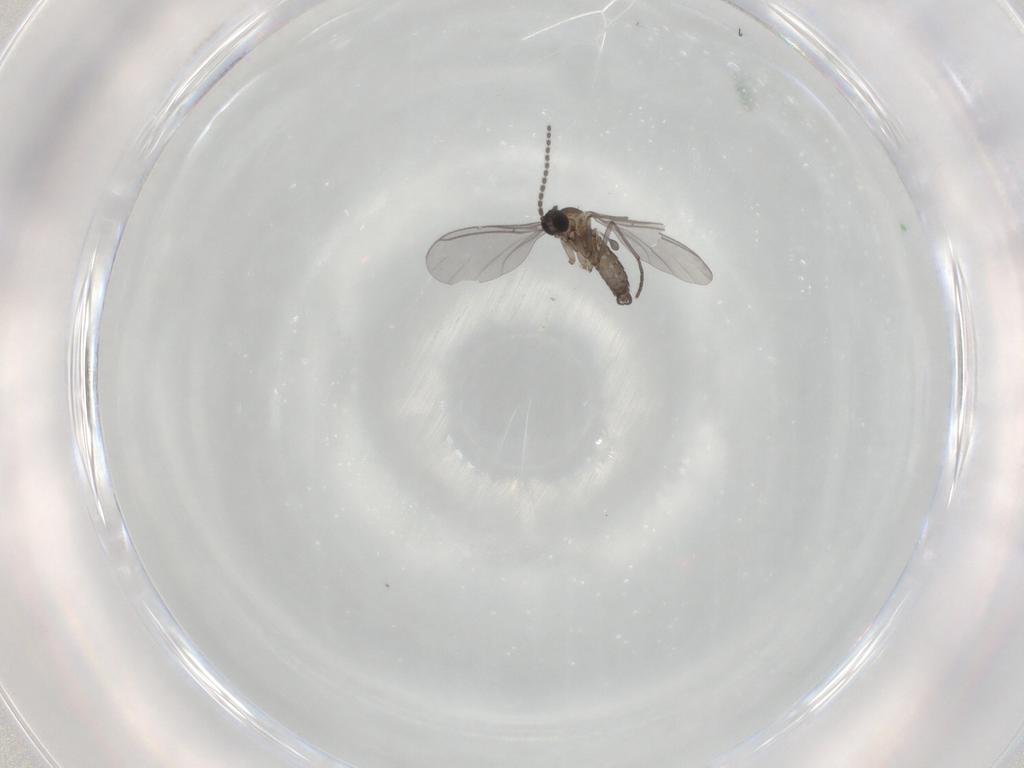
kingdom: Animalia
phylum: Arthropoda
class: Insecta
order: Diptera
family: Sciaridae
